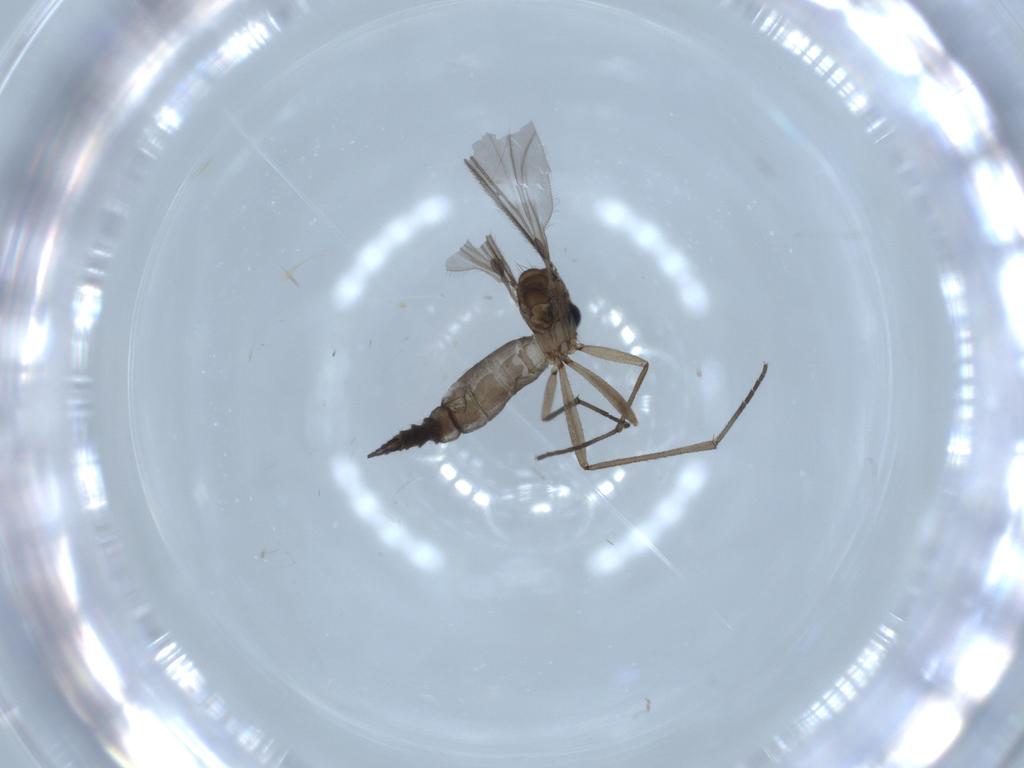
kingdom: Animalia
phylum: Arthropoda
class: Insecta
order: Diptera
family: Sciaridae
